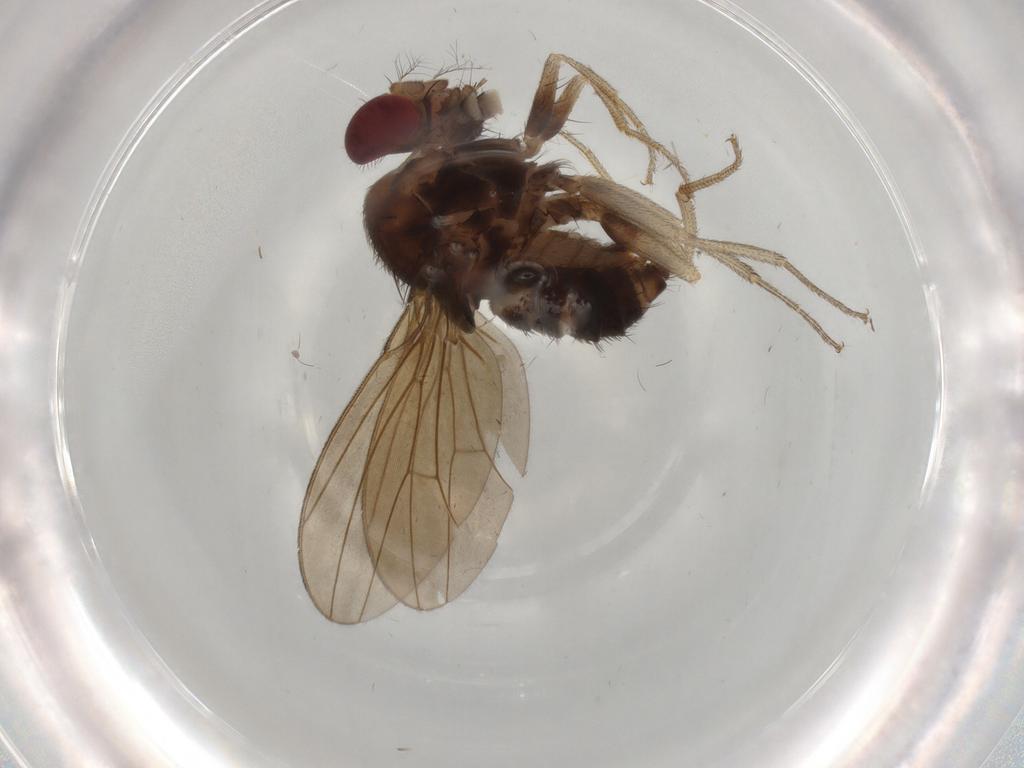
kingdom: Animalia
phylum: Arthropoda
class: Insecta
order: Diptera
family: Drosophilidae
